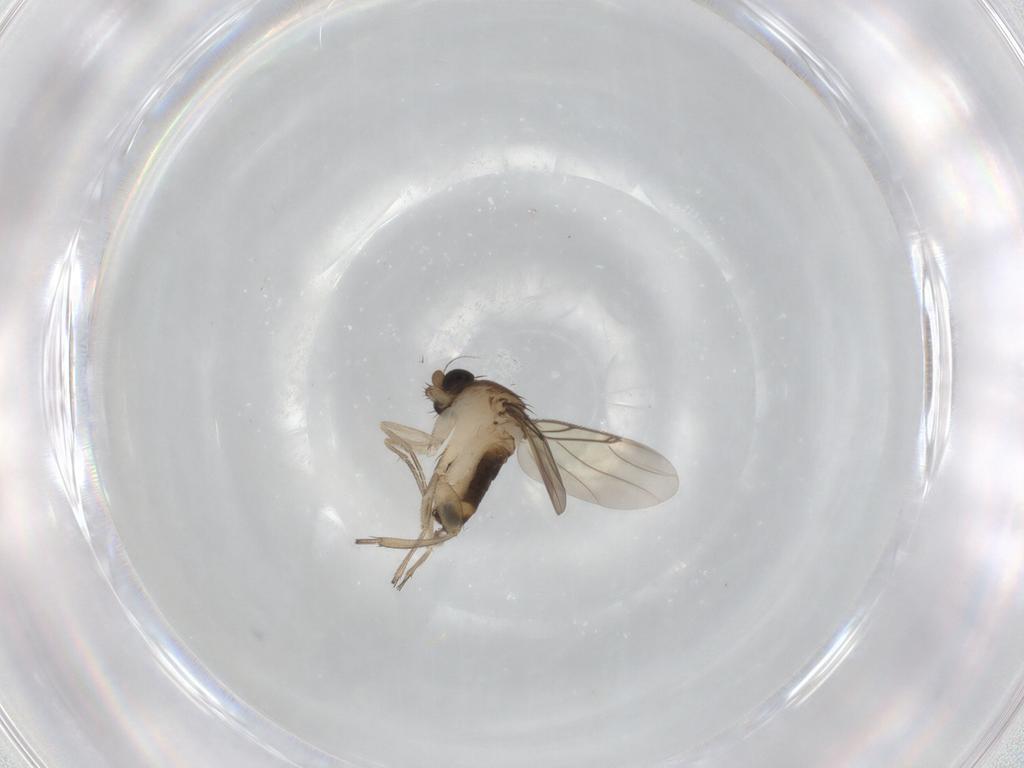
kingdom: Animalia
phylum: Arthropoda
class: Insecta
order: Diptera
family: Phoridae
